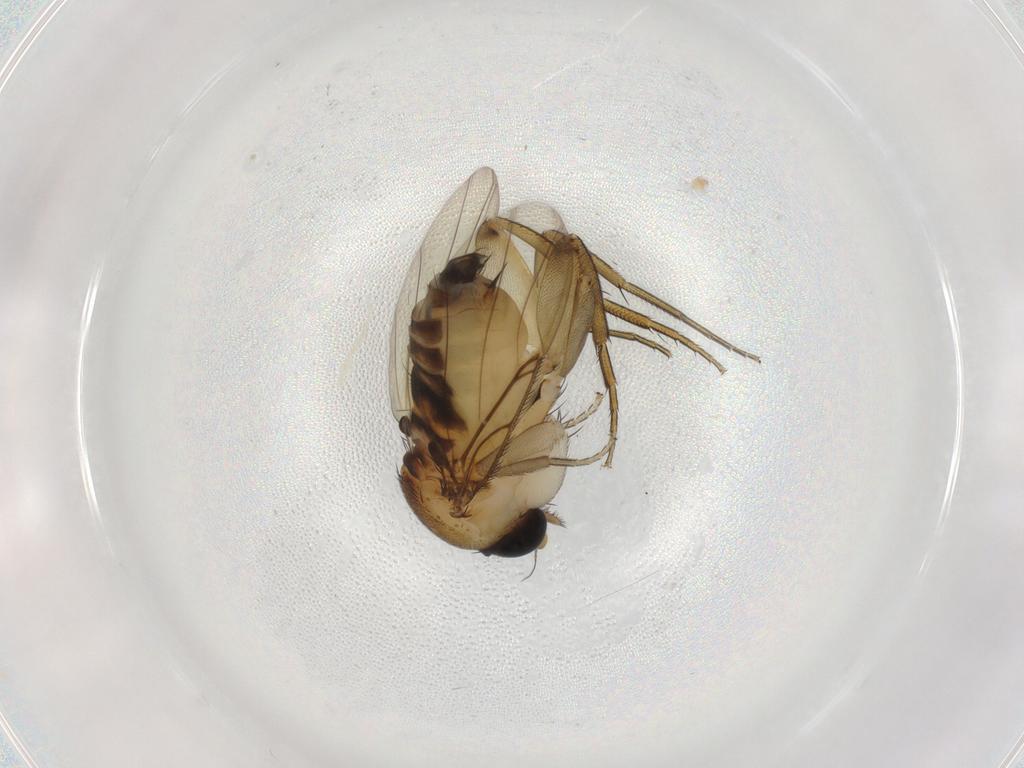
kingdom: Animalia
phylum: Arthropoda
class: Insecta
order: Diptera
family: Phoridae
